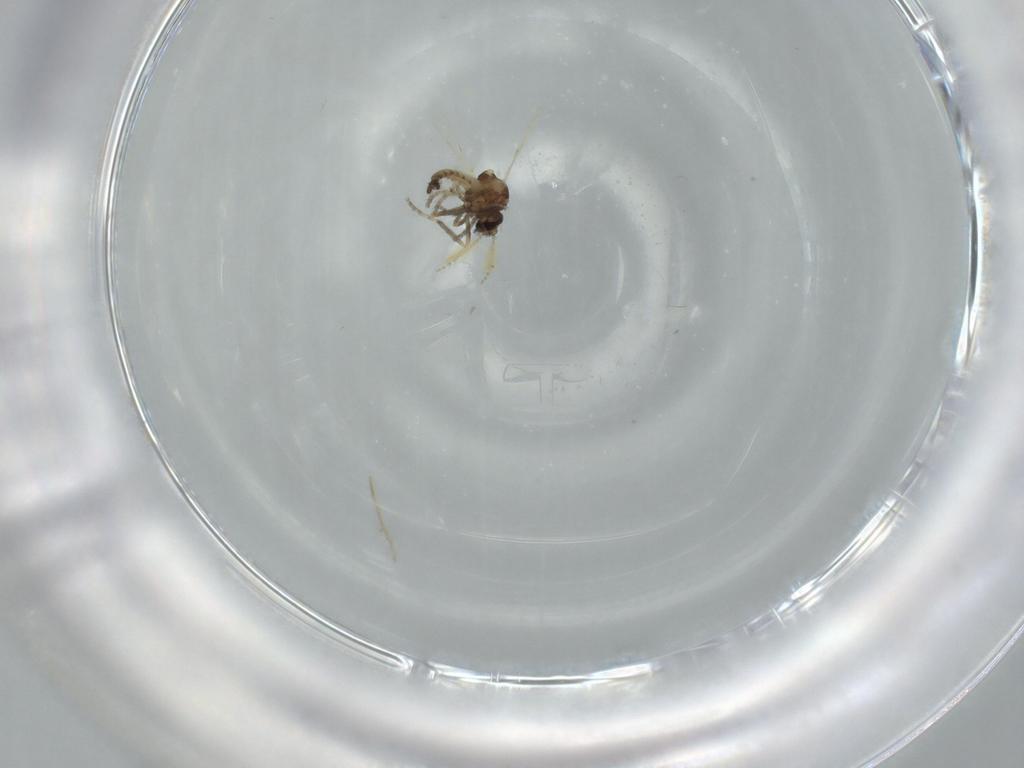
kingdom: Animalia
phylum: Arthropoda
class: Insecta
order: Diptera
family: Ceratopogonidae
